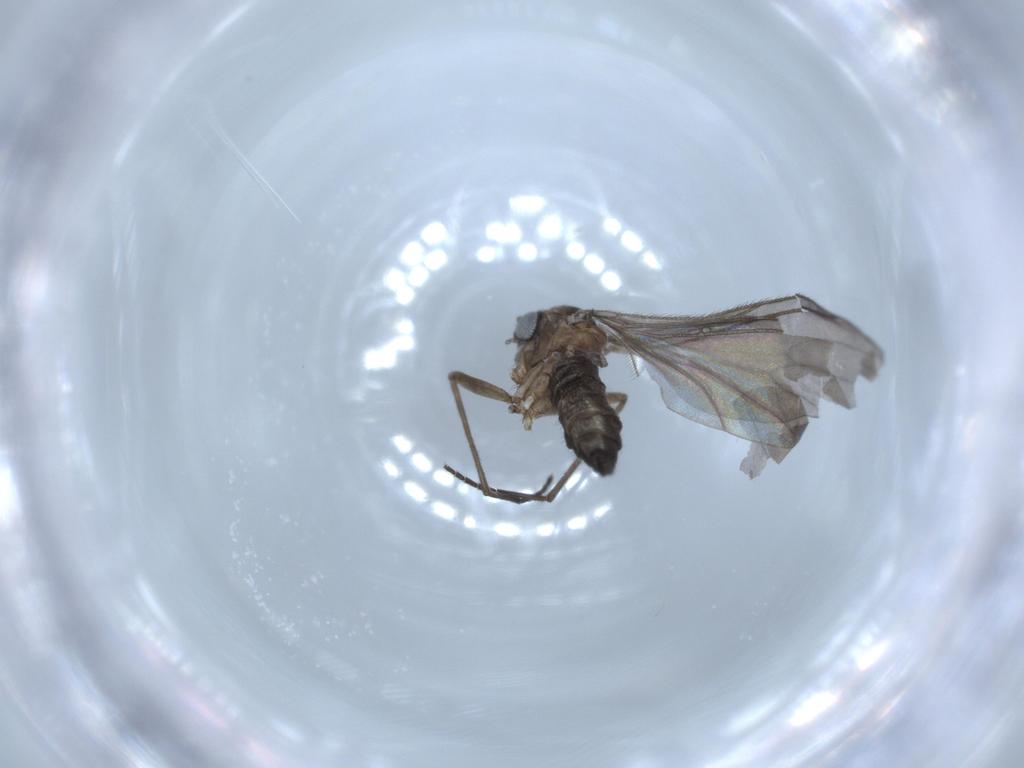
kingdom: Animalia
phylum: Arthropoda
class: Insecta
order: Diptera
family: Sciaridae
